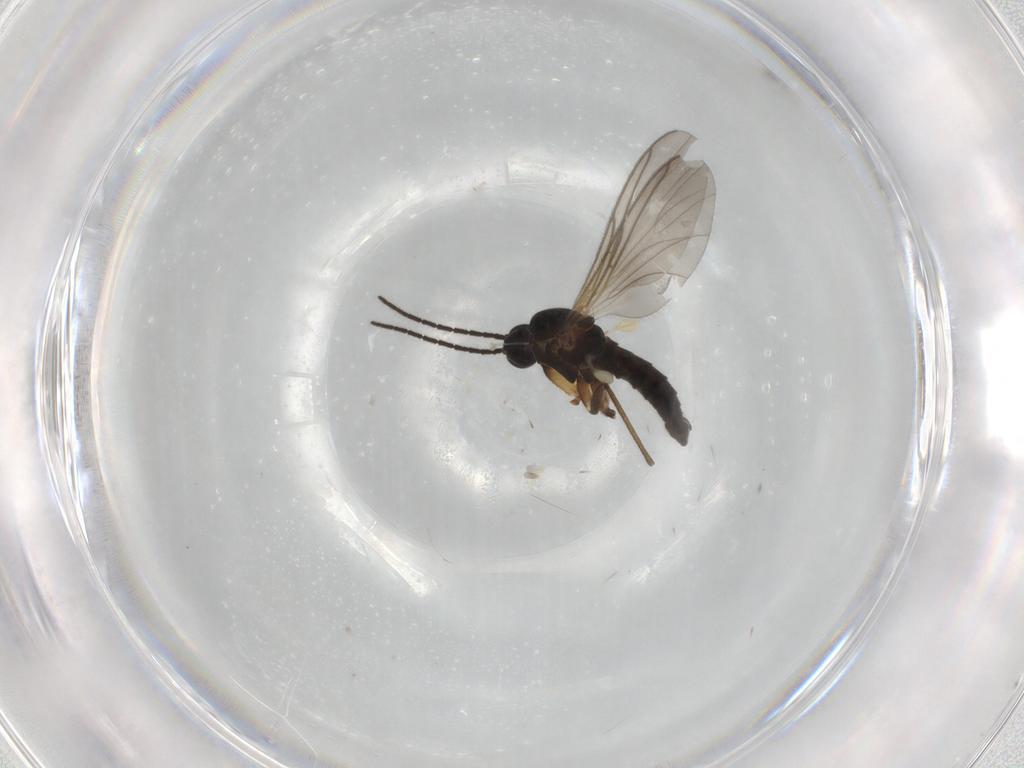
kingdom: Animalia
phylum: Arthropoda
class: Insecta
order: Diptera
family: Sciaridae
